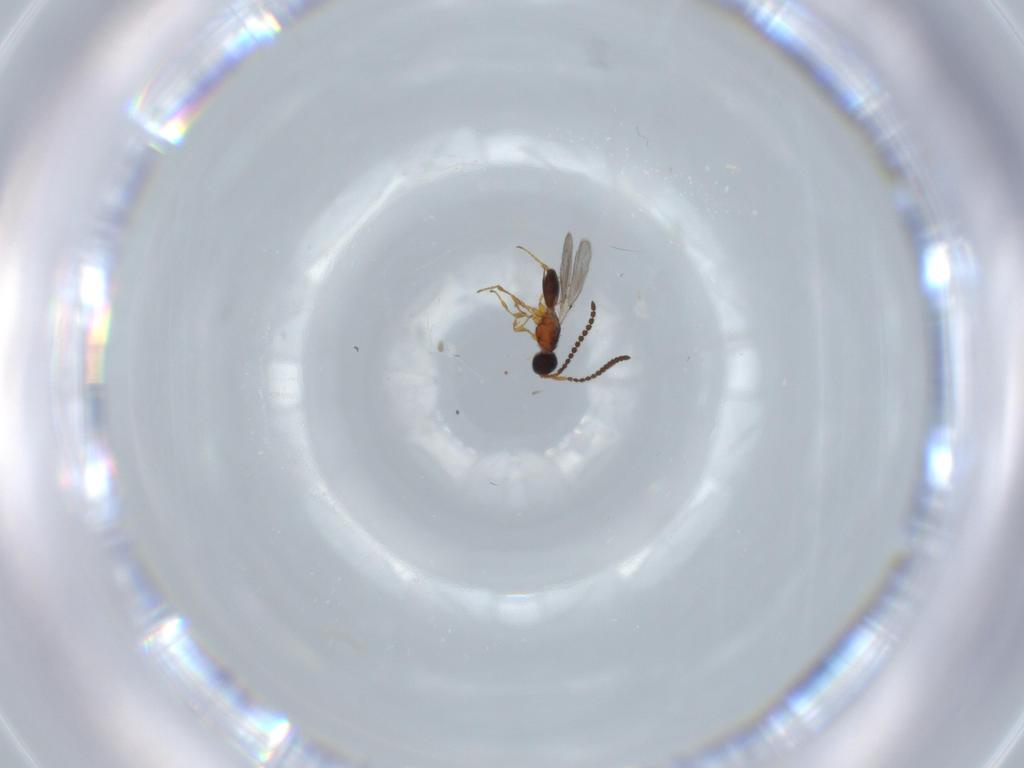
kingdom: Animalia
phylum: Arthropoda
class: Insecta
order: Hymenoptera
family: Diapriidae
